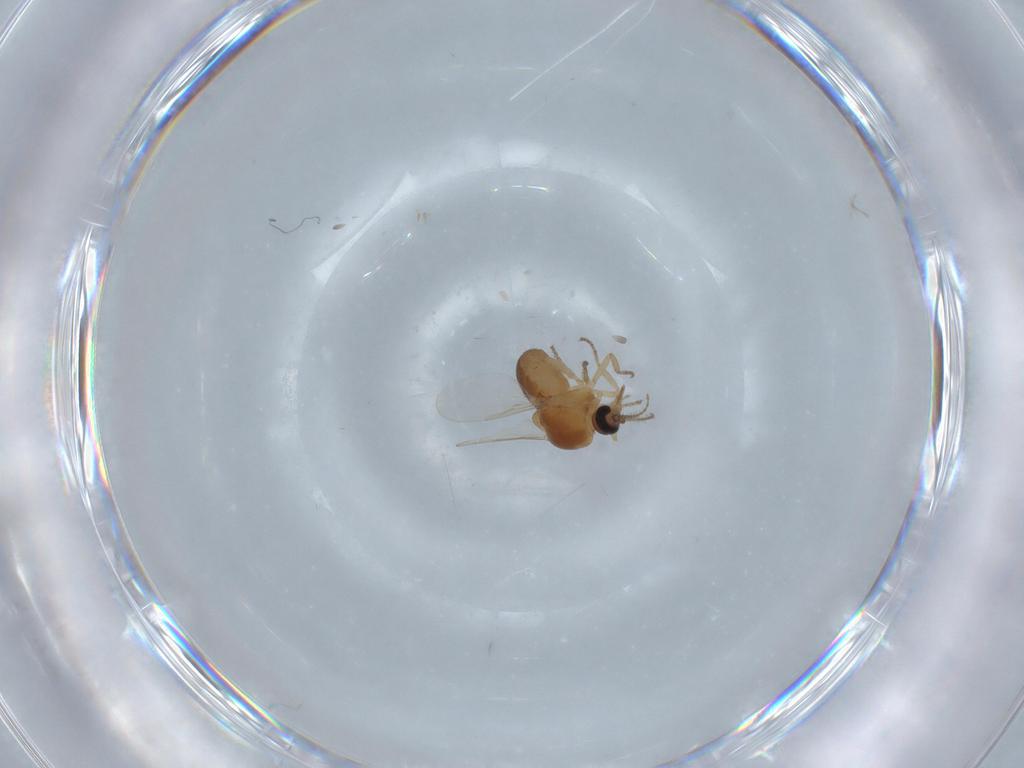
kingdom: Animalia
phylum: Arthropoda
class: Insecta
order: Diptera
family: Ceratopogonidae
